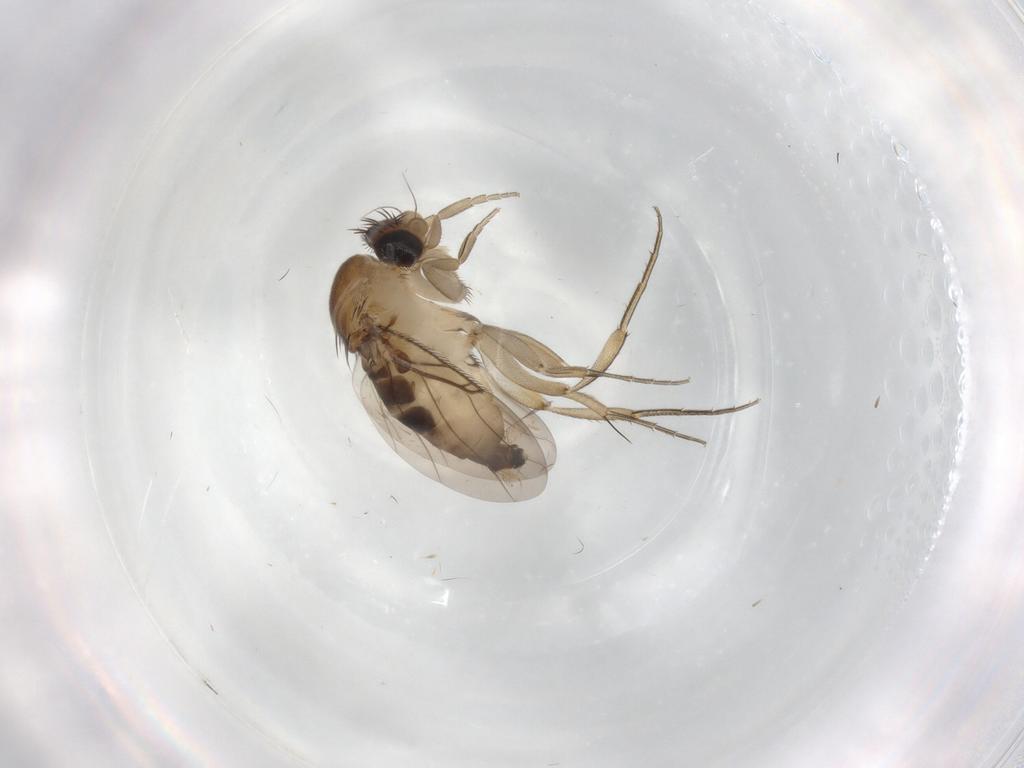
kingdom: Animalia
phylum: Arthropoda
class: Insecta
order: Diptera
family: Phoridae
